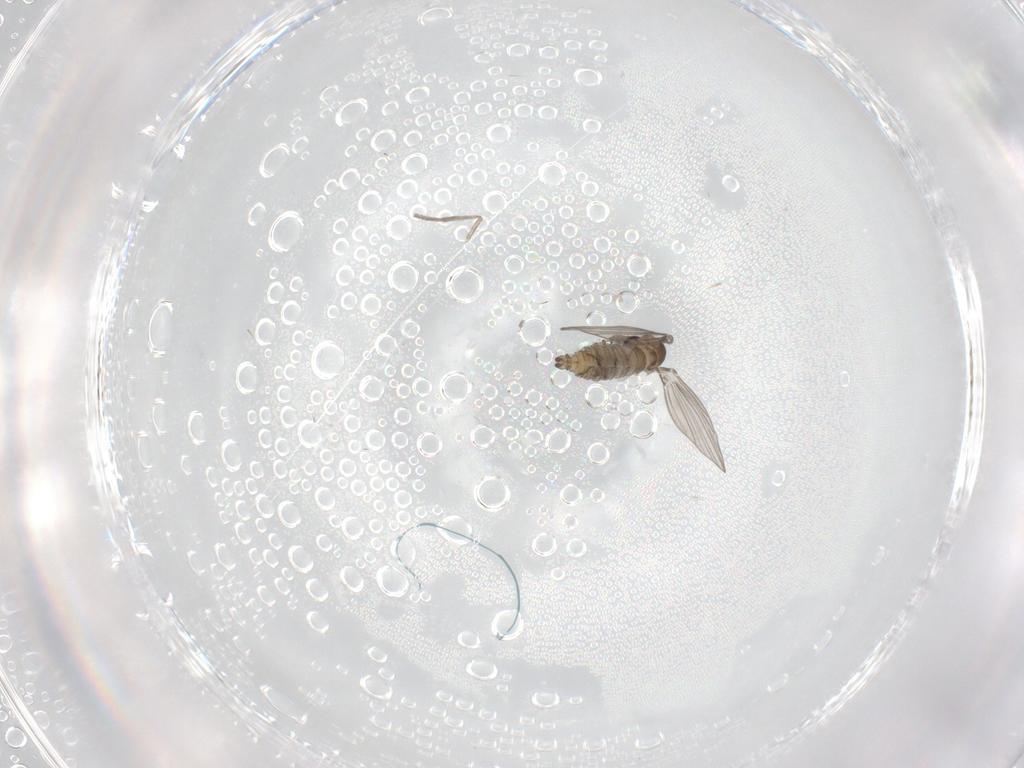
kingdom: Animalia
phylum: Arthropoda
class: Insecta
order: Diptera
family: Psychodidae
